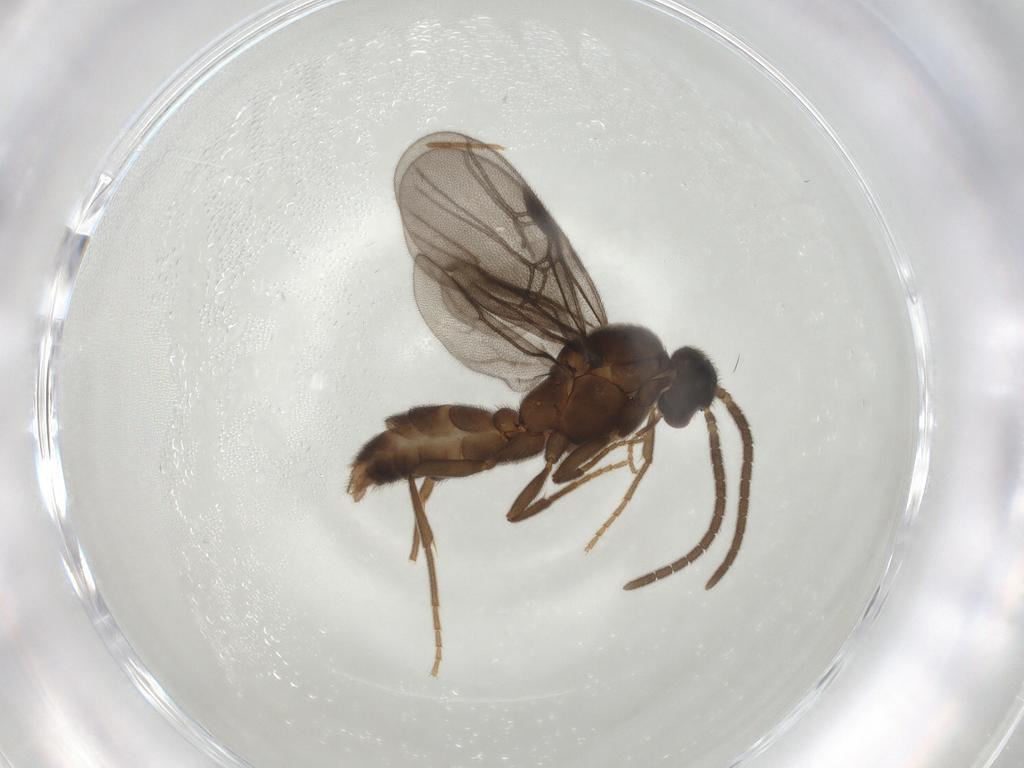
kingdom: Animalia
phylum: Arthropoda
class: Insecta
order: Hymenoptera
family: Formicidae
